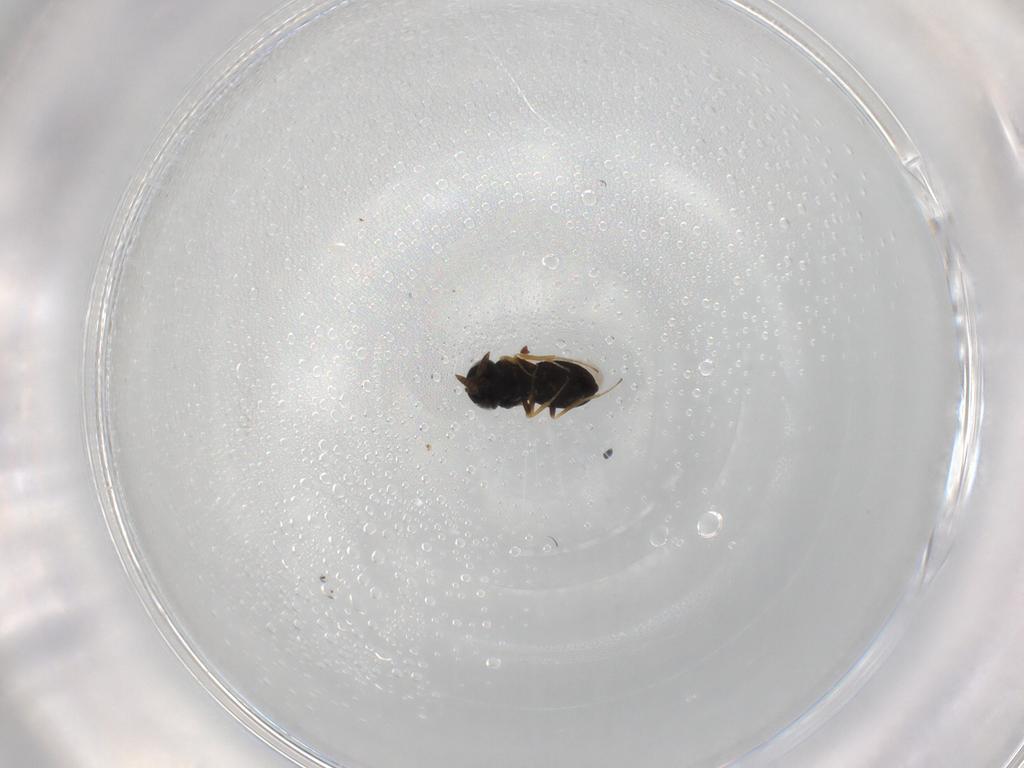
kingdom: Animalia
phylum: Arthropoda
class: Insecta
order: Hymenoptera
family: Scelionidae
